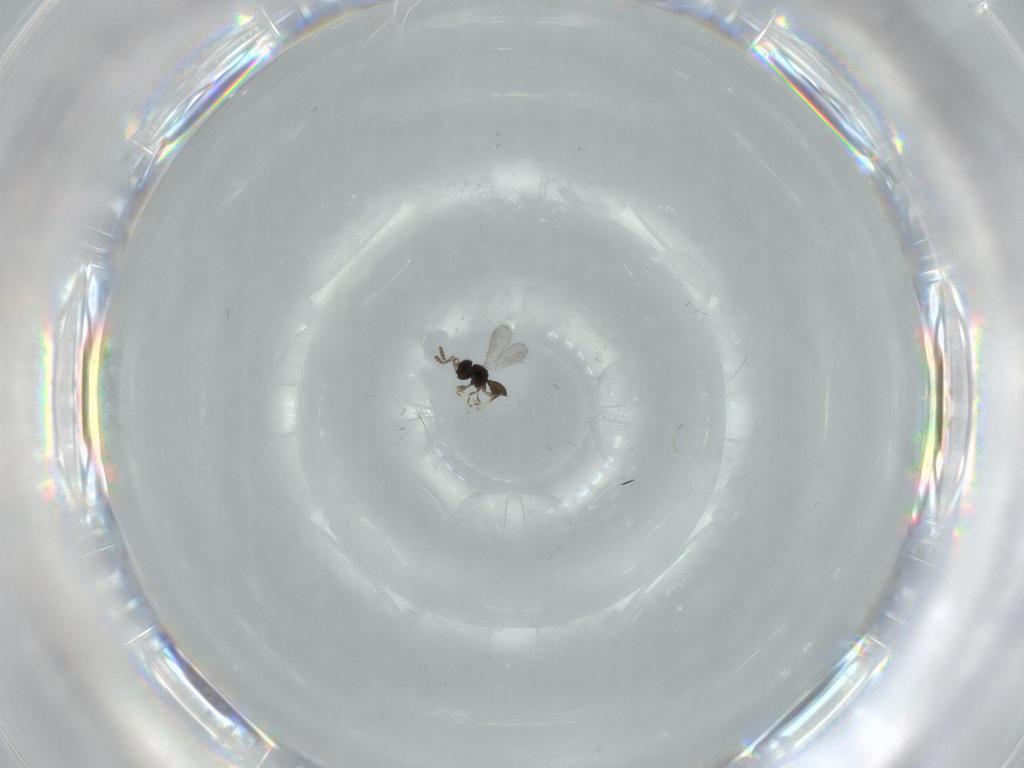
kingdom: Animalia
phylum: Arthropoda
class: Insecta
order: Hymenoptera
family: Scelionidae
